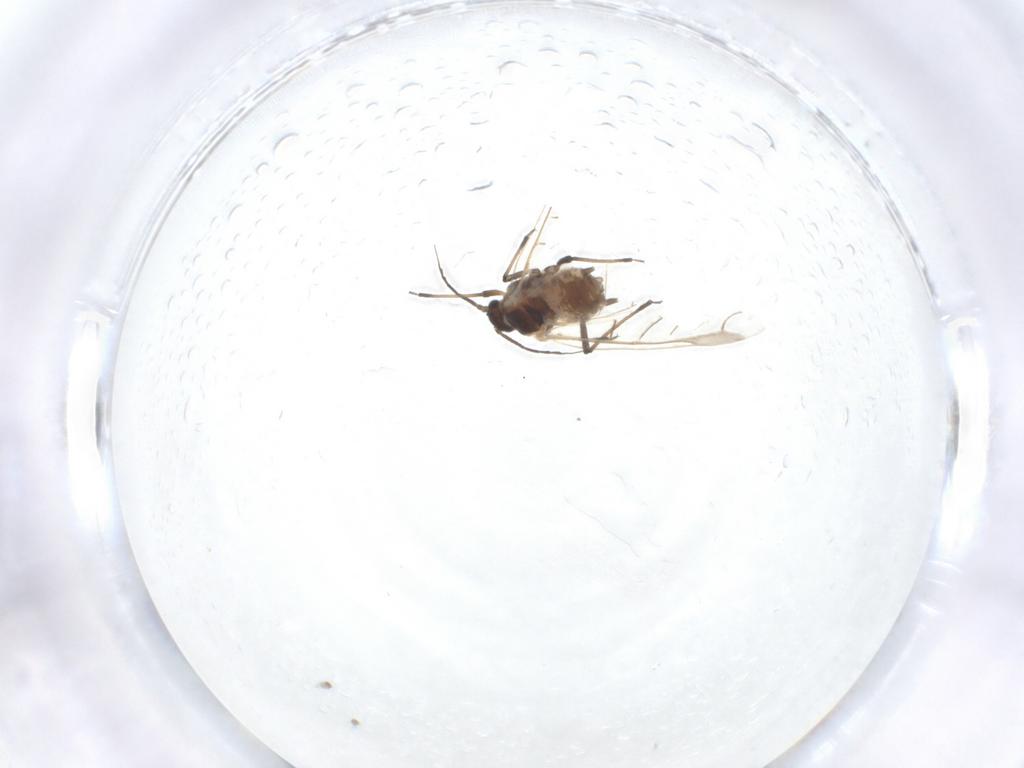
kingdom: Animalia
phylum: Arthropoda
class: Insecta
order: Hemiptera
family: Aphididae
